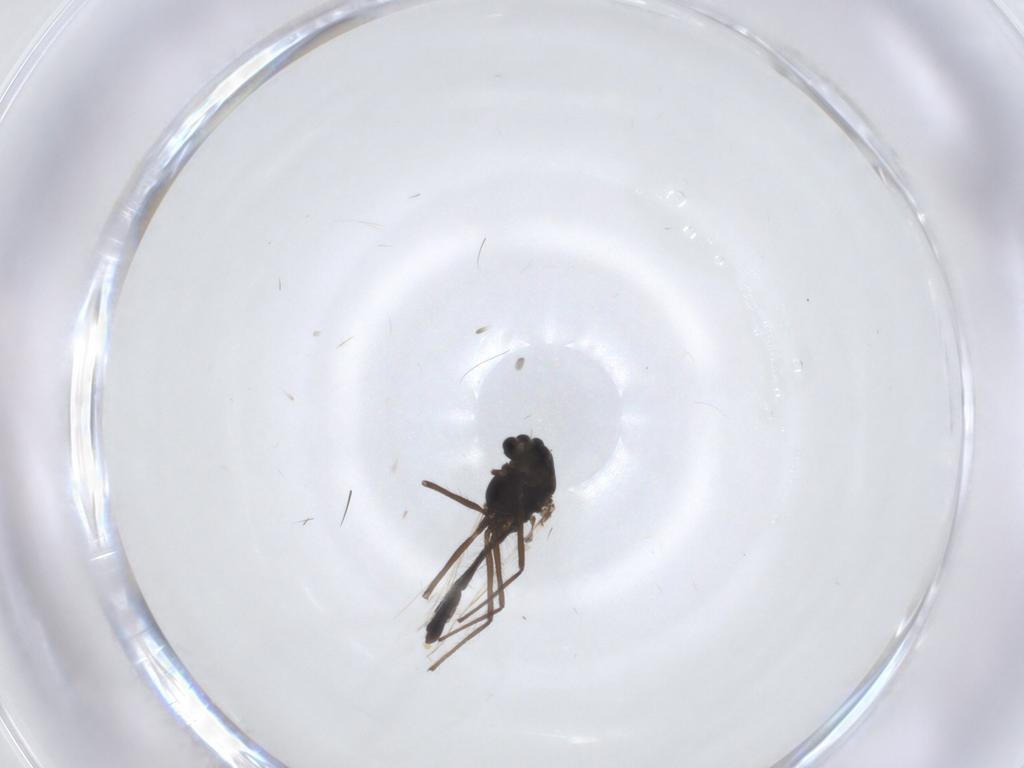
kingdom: Animalia
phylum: Arthropoda
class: Insecta
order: Diptera
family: Chironomidae
